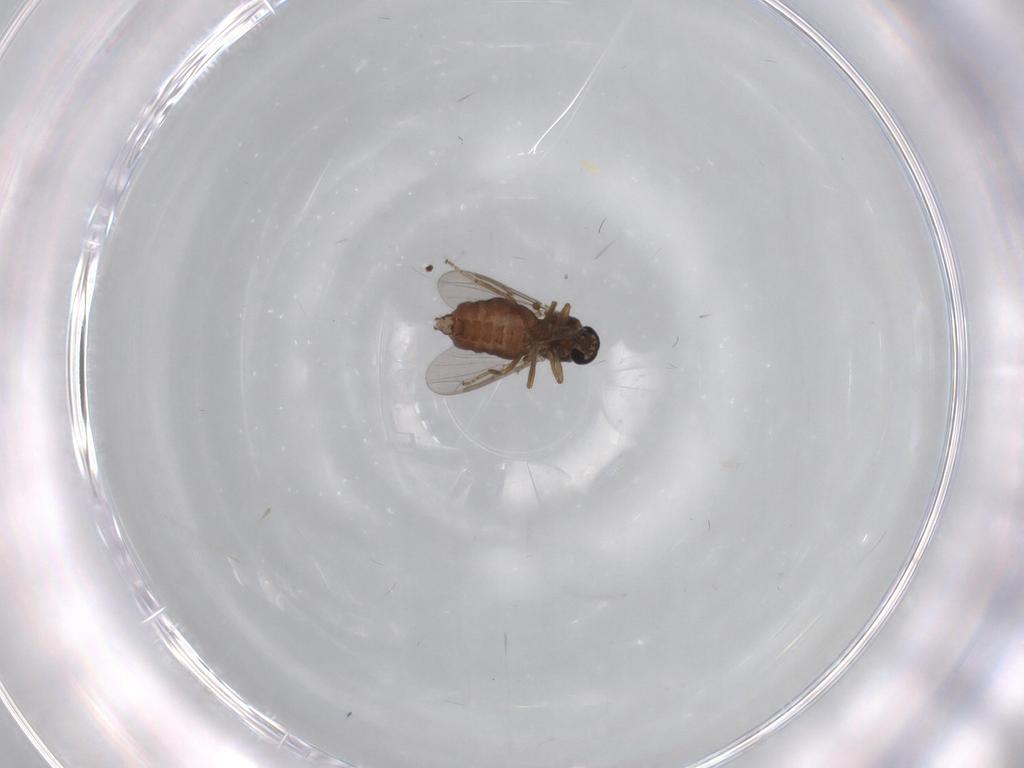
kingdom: Animalia
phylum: Arthropoda
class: Insecta
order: Diptera
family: Ceratopogonidae
